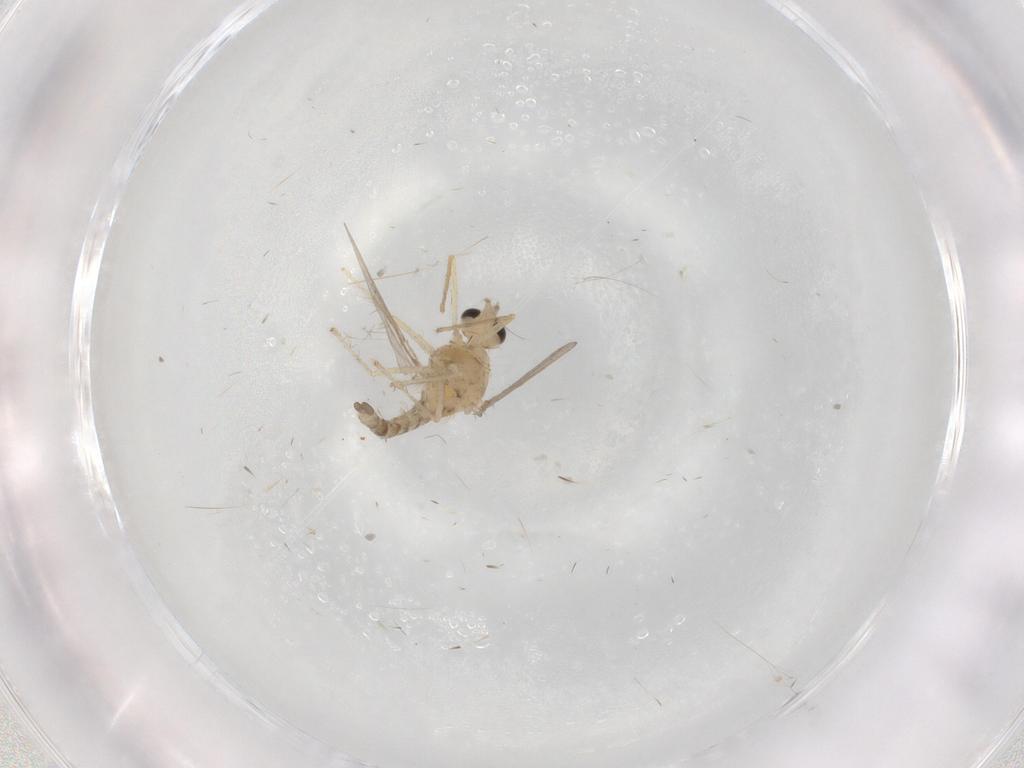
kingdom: Animalia
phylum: Arthropoda
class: Insecta
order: Diptera
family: Chironomidae
